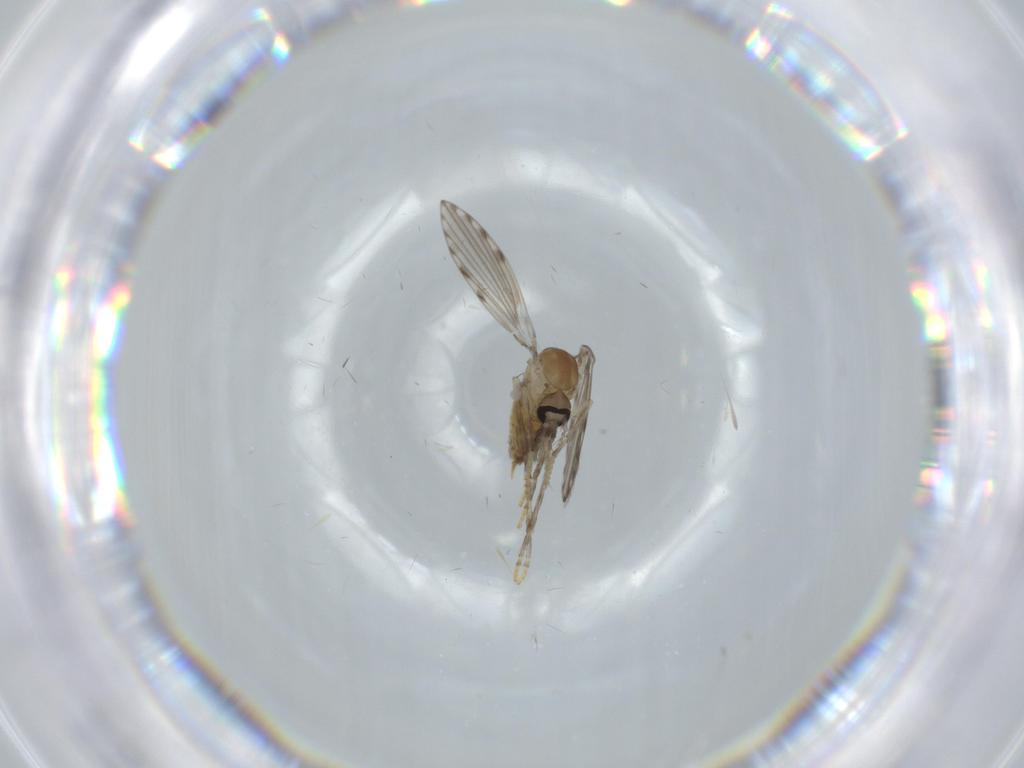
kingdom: Animalia
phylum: Arthropoda
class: Insecta
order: Diptera
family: Psychodidae
